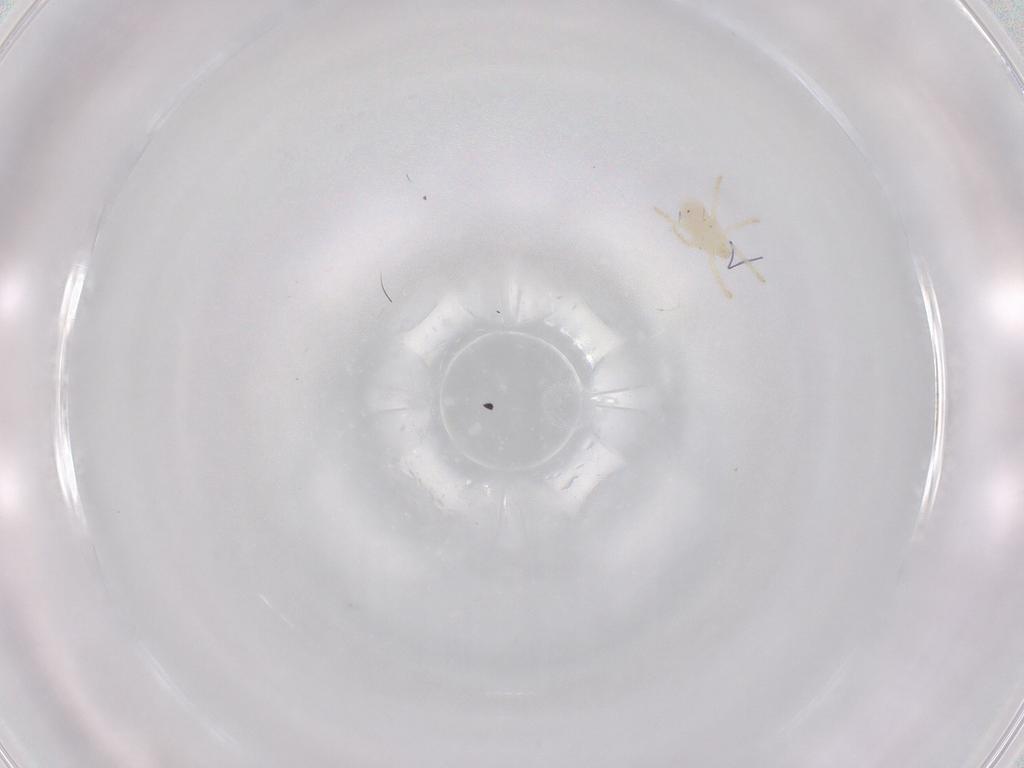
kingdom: Animalia
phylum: Arthropoda
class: Arachnida
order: Trombidiformes
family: Trombidiidae
